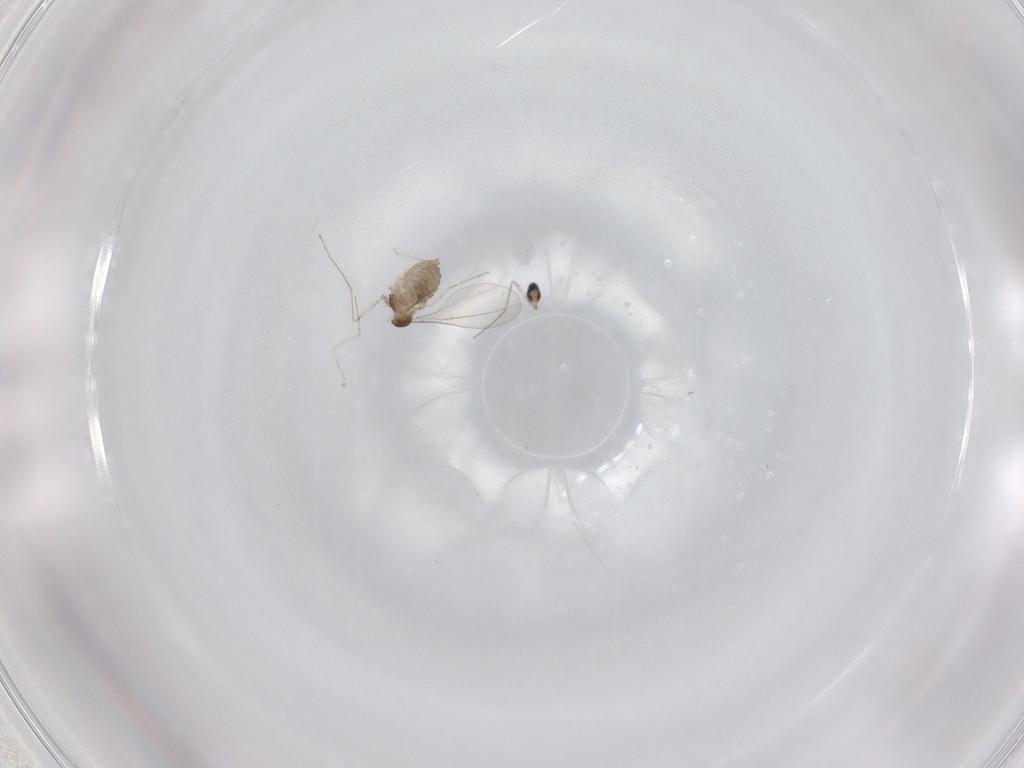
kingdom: Animalia
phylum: Arthropoda
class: Insecta
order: Diptera
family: Cecidomyiidae
